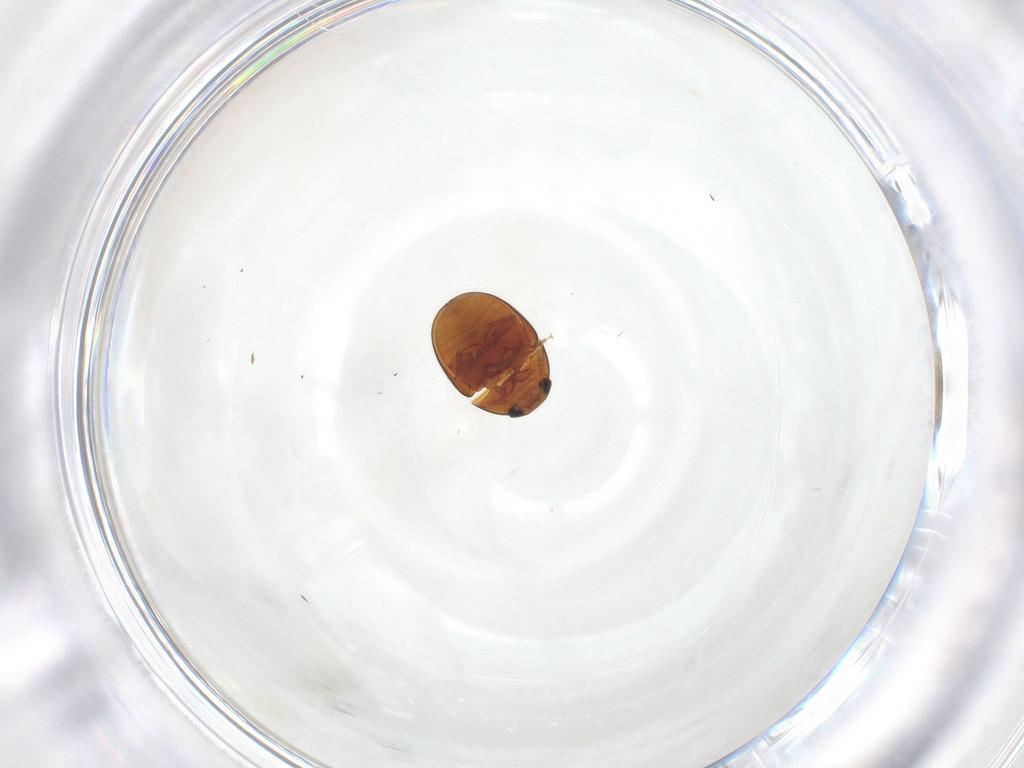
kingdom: Animalia
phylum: Arthropoda
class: Insecta
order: Coleoptera
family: Phalacridae
